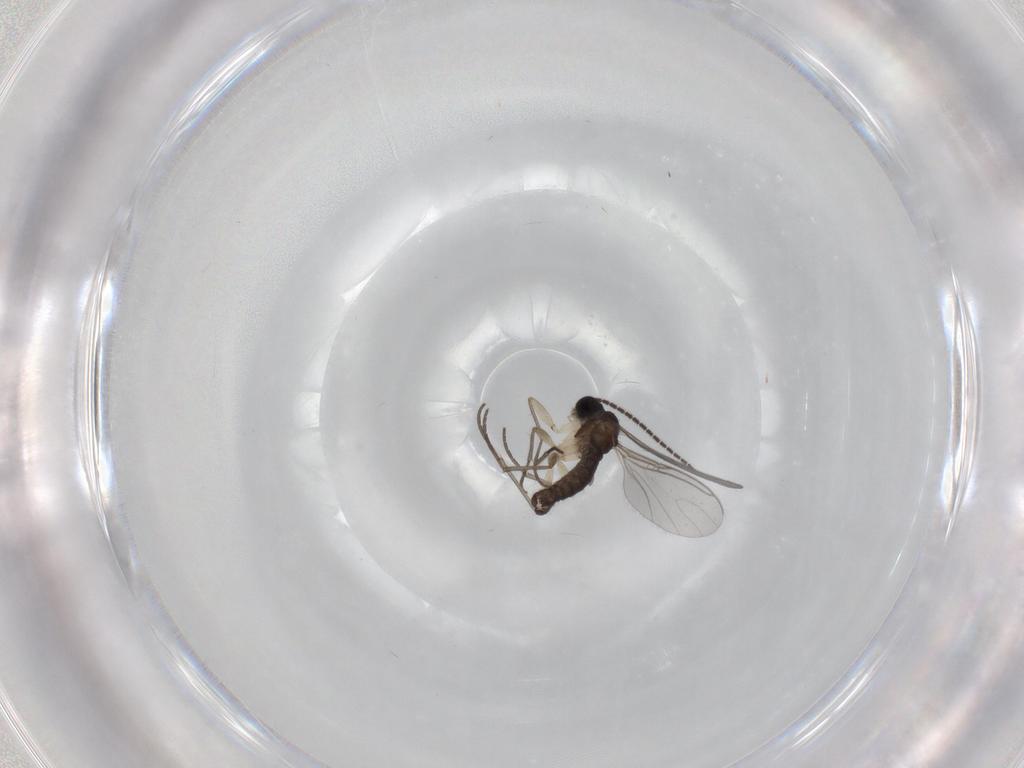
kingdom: Animalia
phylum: Arthropoda
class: Insecta
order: Diptera
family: Sciaridae
